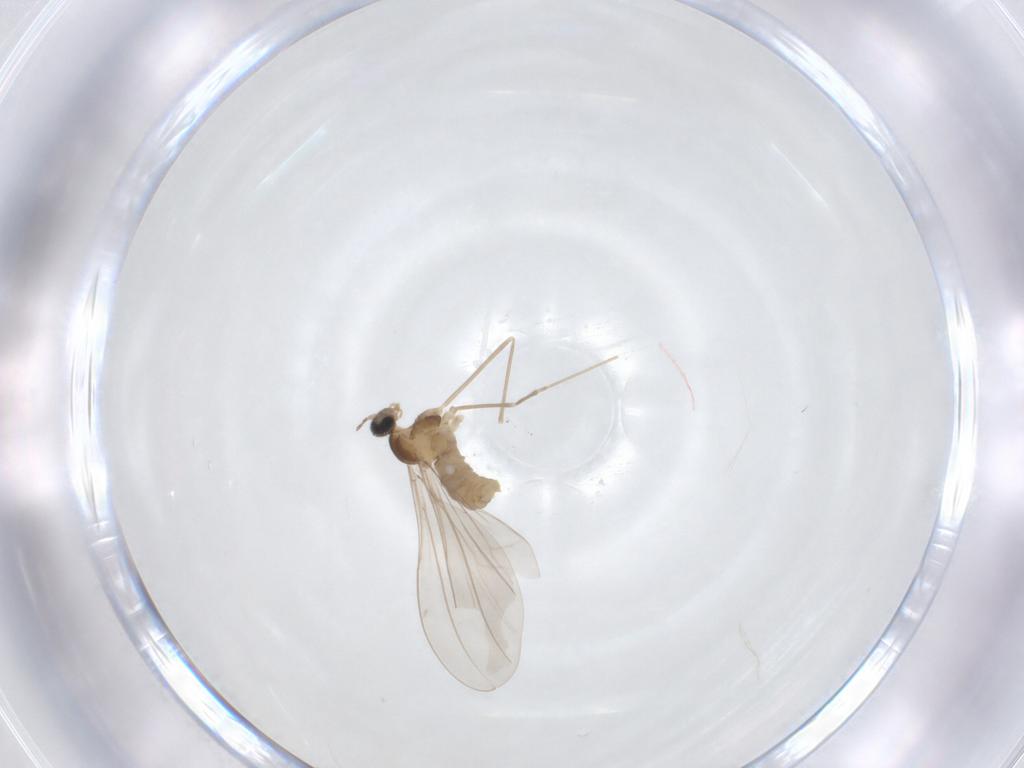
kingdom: Animalia
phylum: Arthropoda
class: Insecta
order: Diptera
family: Cecidomyiidae
